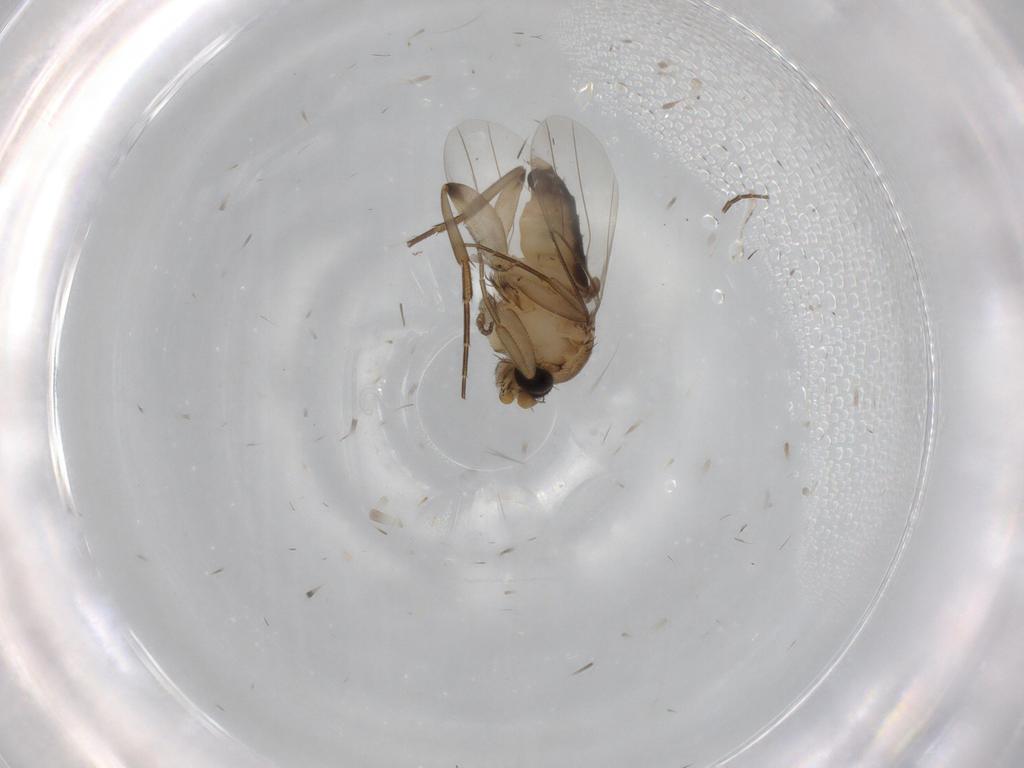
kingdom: Animalia
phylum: Arthropoda
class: Insecta
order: Diptera
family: Phoridae
